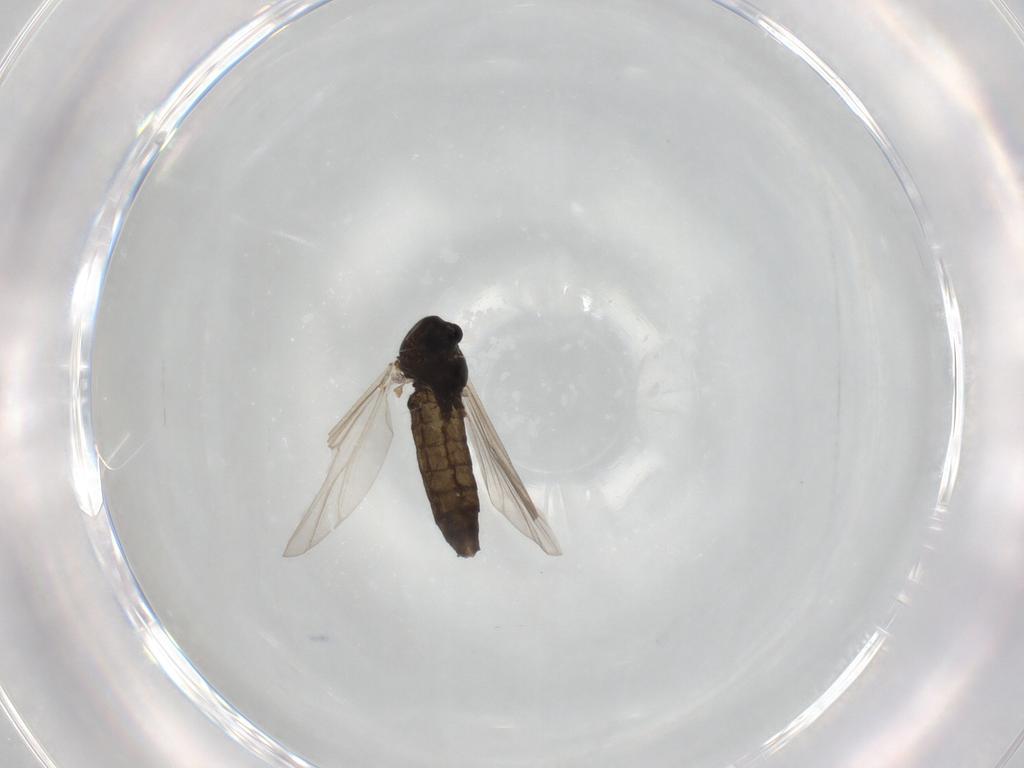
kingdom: Animalia
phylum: Arthropoda
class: Insecta
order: Diptera
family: Chironomidae
